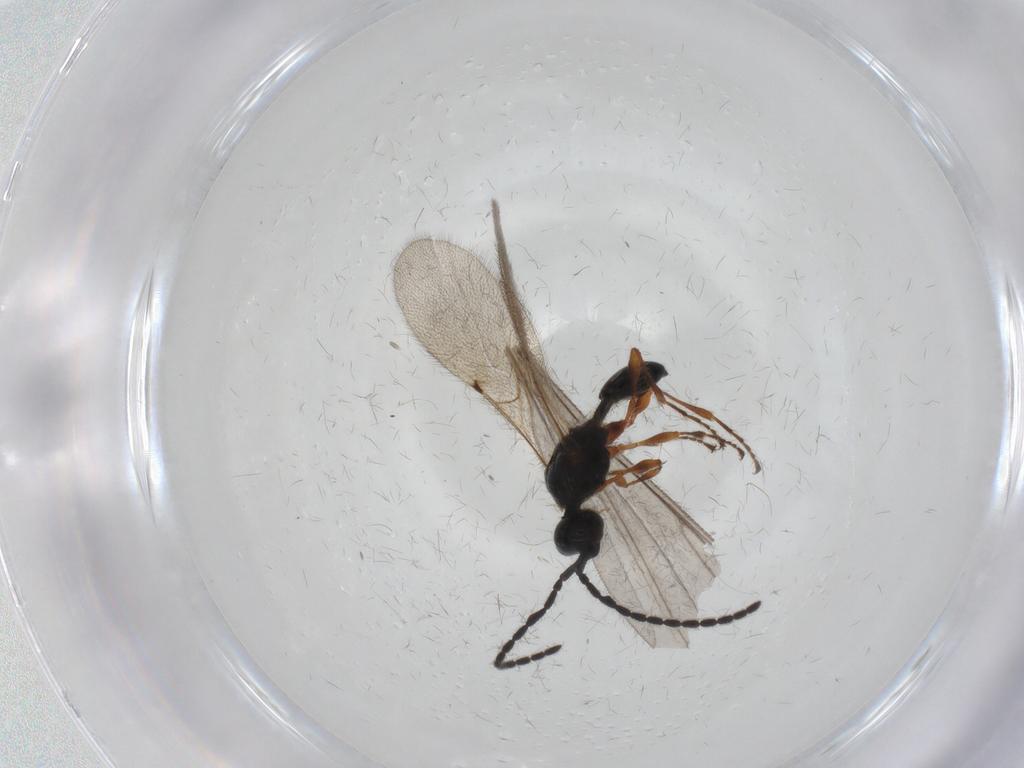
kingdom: Animalia
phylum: Arthropoda
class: Insecta
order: Hymenoptera
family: Diapriidae
